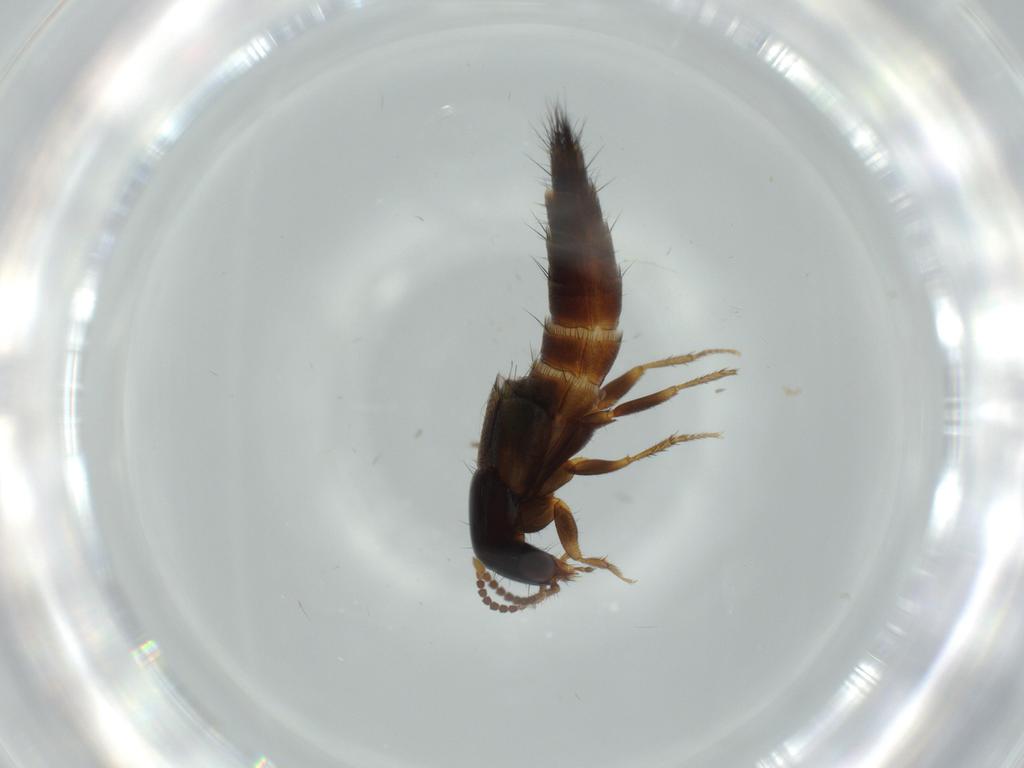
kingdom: Animalia
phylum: Arthropoda
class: Insecta
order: Coleoptera
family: Staphylinidae
